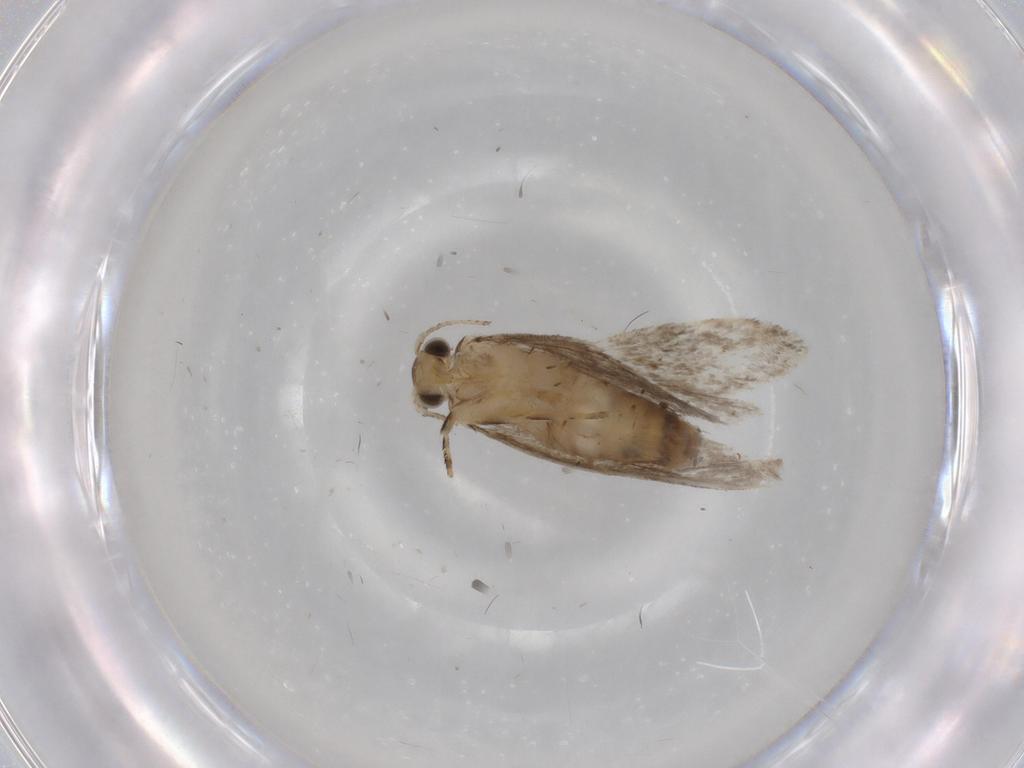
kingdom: Animalia
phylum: Arthropoda
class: Insecta
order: Lepidoptera
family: Tineidae
